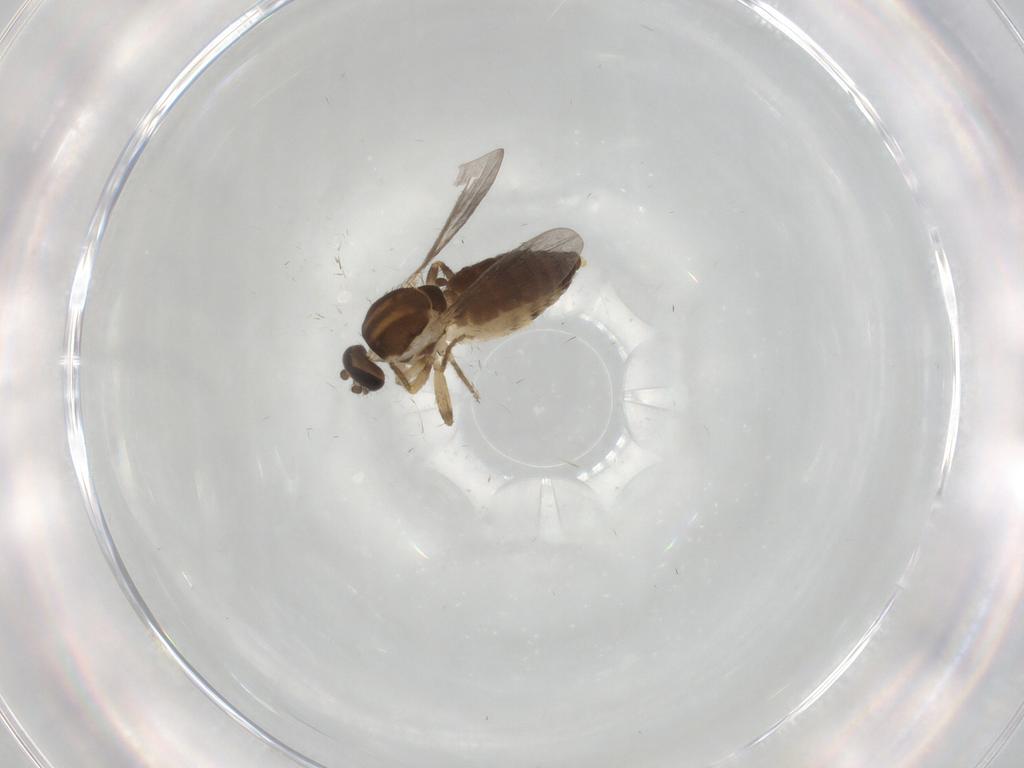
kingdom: Animalia
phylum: Arthropoda
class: Insecta
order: Diptera
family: Ceratopogonidae
